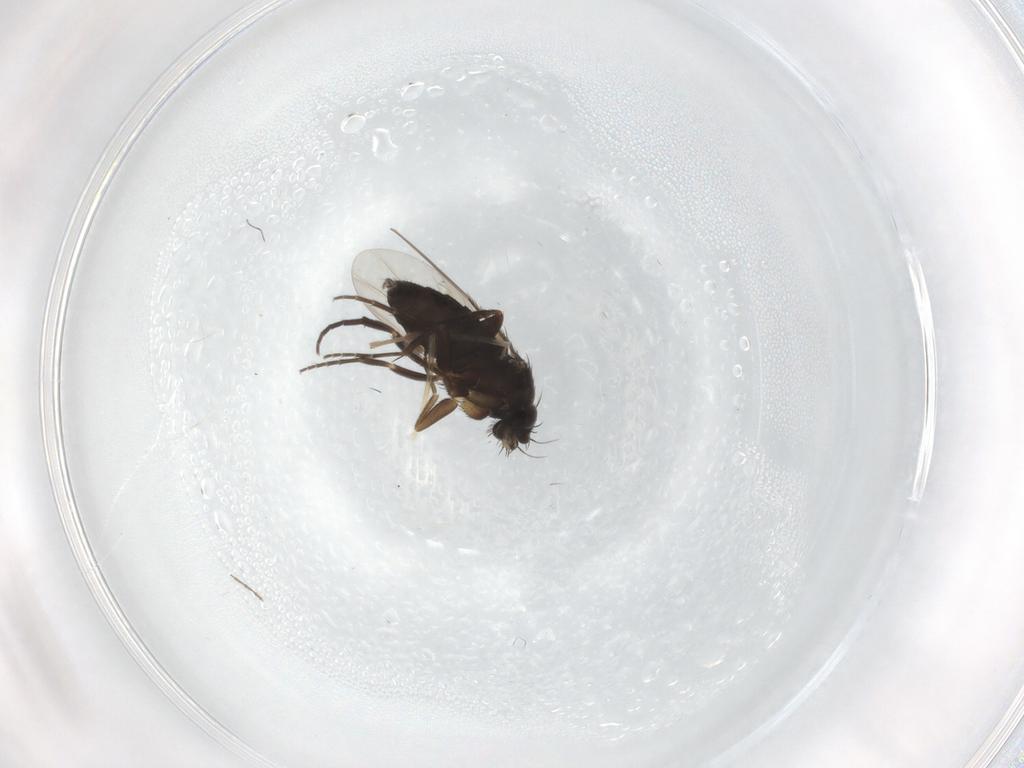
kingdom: Animalia
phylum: Arthropoda
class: Insecta
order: Diptera
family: Phoridae
